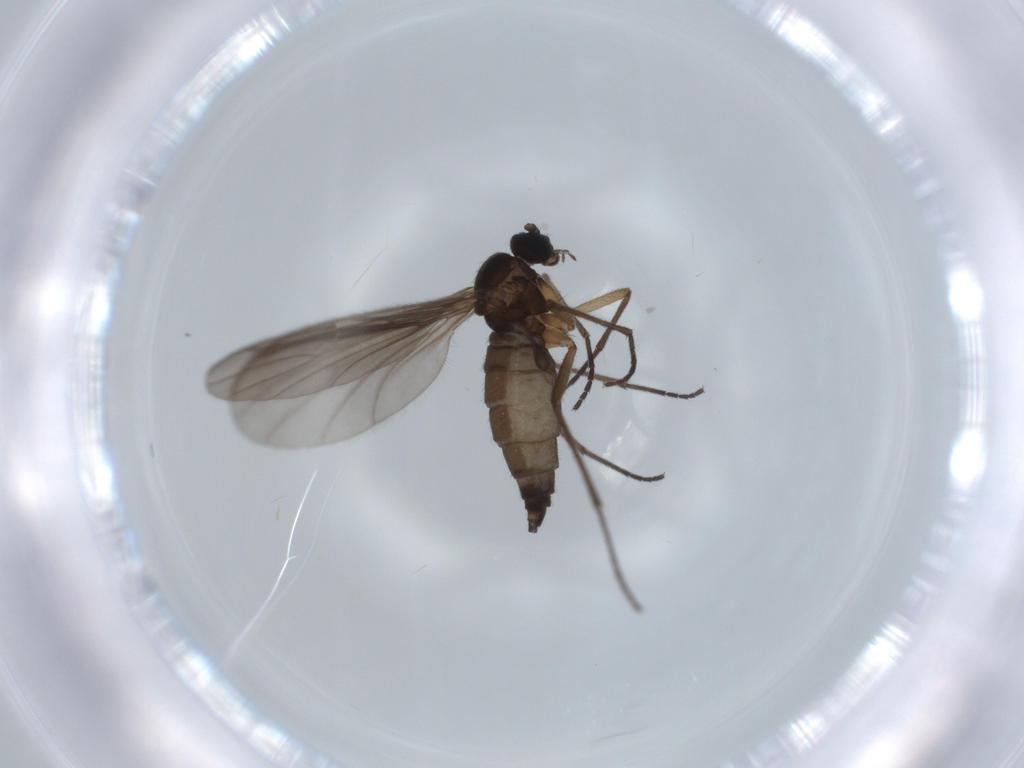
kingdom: Animalia
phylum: Arthropoda
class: Insecta
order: Diptera
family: Sciaridae
